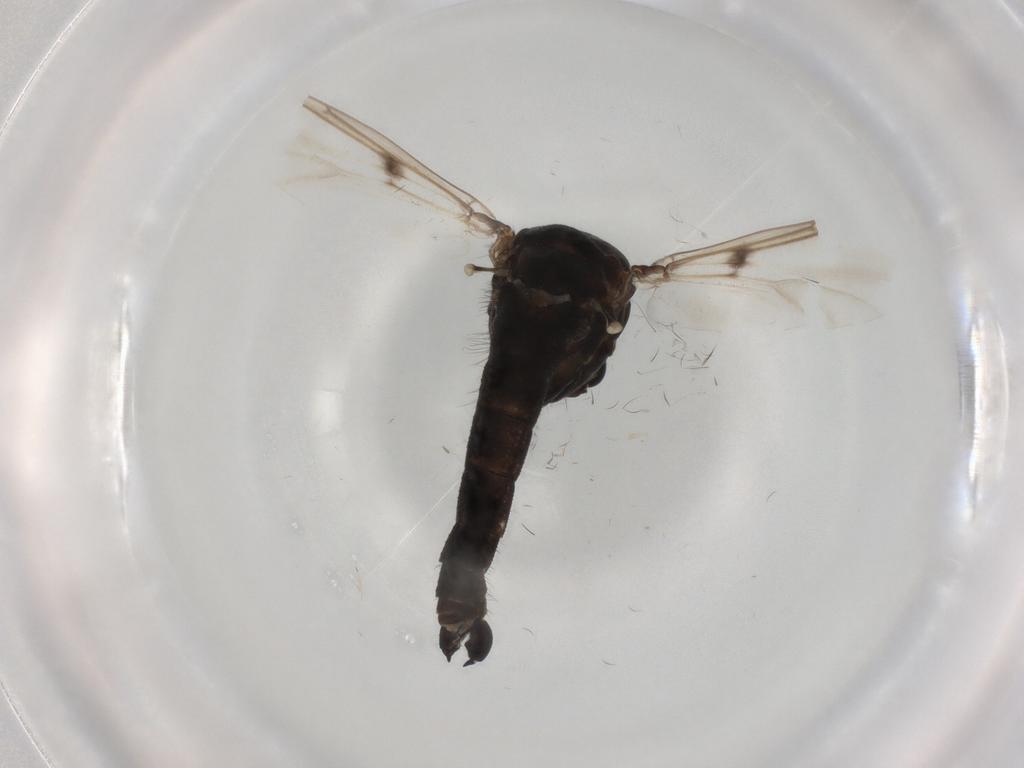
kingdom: Animalia
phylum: Arthropoda
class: Insecta
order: Diptera
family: Chironomidae
